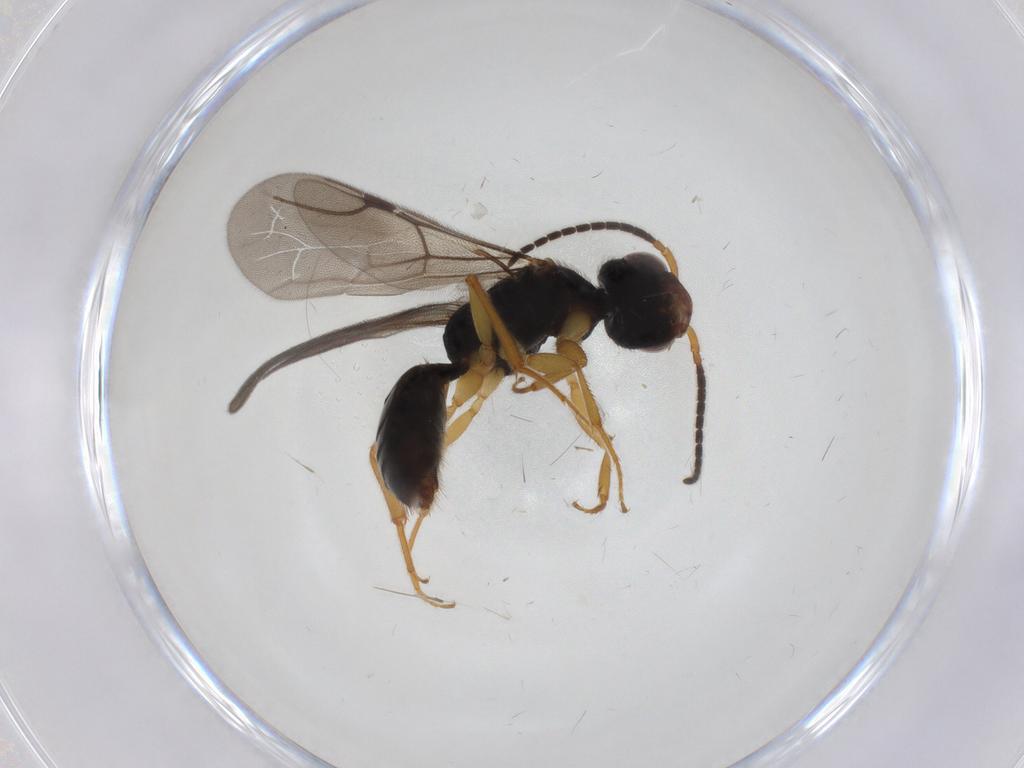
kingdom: Animalia
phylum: Arthropoda
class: Insecta
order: Hymenoptera
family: Bethylidae
